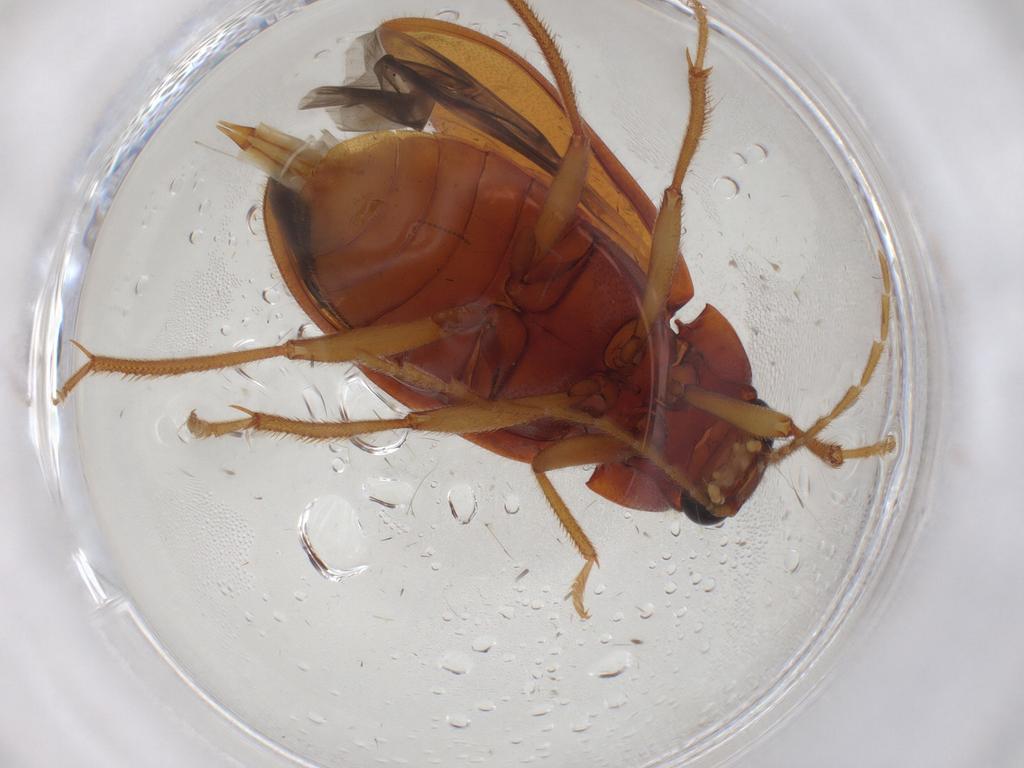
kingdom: Animalia
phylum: Arthropoda
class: Insecta
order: Coleoptera
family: Ptilodactylidae
